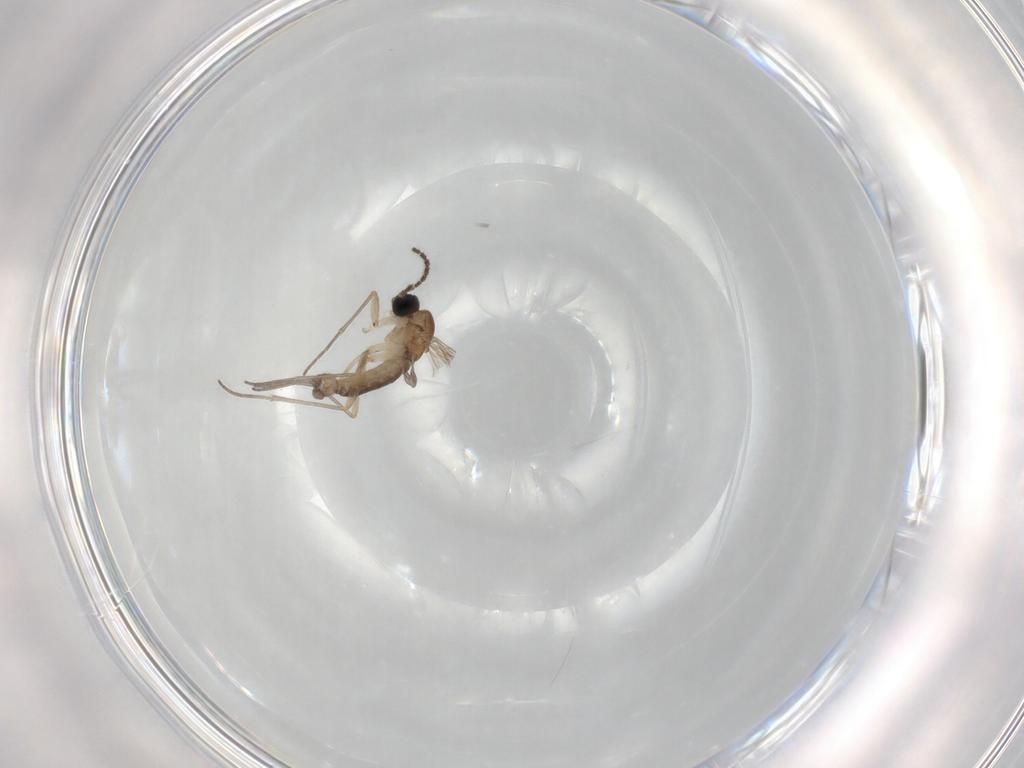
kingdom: Animalia
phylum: Arthropoda
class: Insecta
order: Diptera
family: Sciaridae
